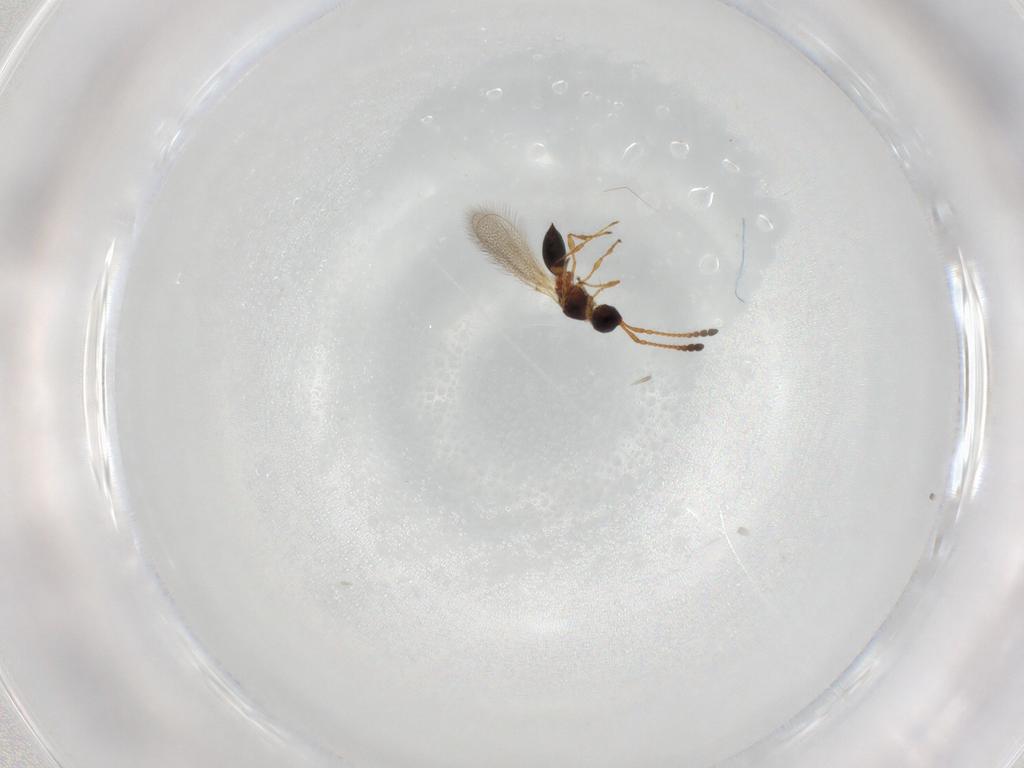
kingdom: Animalia
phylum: Arthropoda
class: Insecta
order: Hymenoptera
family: Diapriidae
